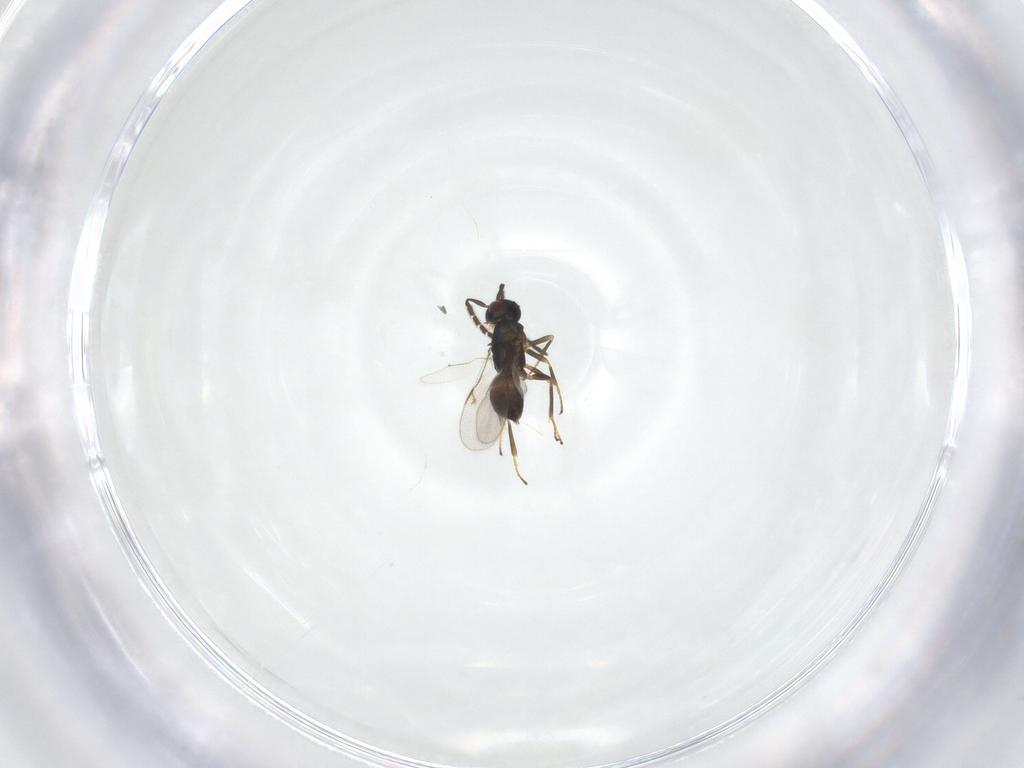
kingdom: Animalia
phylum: Arthropoda
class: Insecta
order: Hymenoptera
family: Encyrtidae
